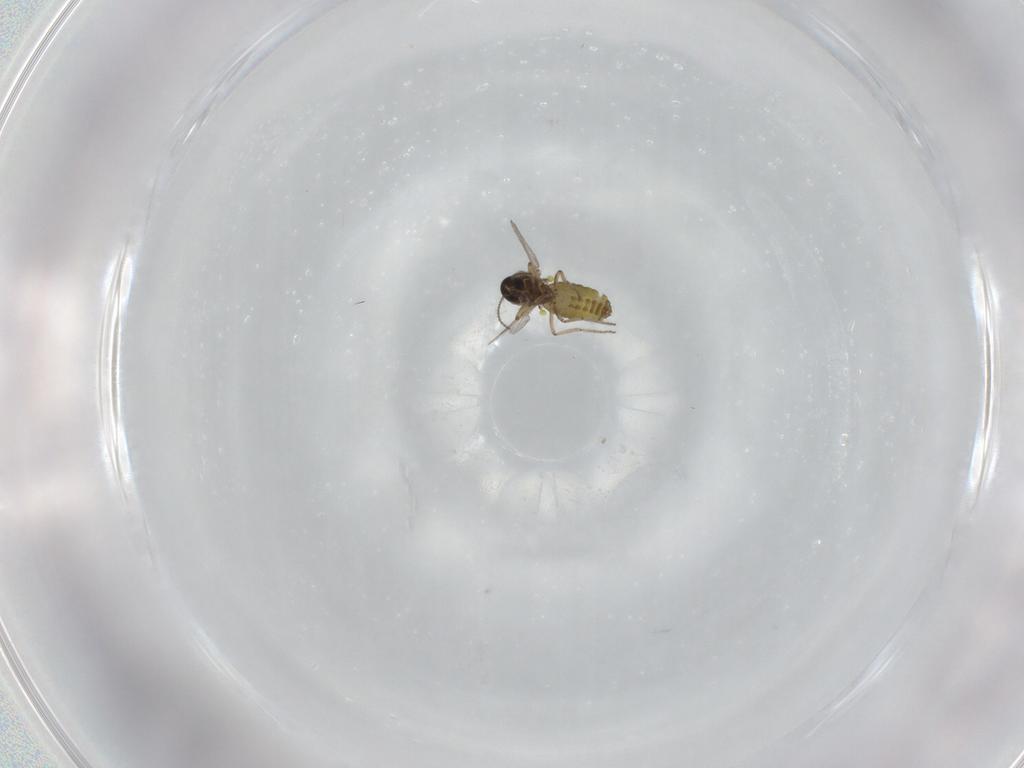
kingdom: Animalia
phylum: Arthropoda
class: Insecta
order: Diptera
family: Ceratopogonidae
